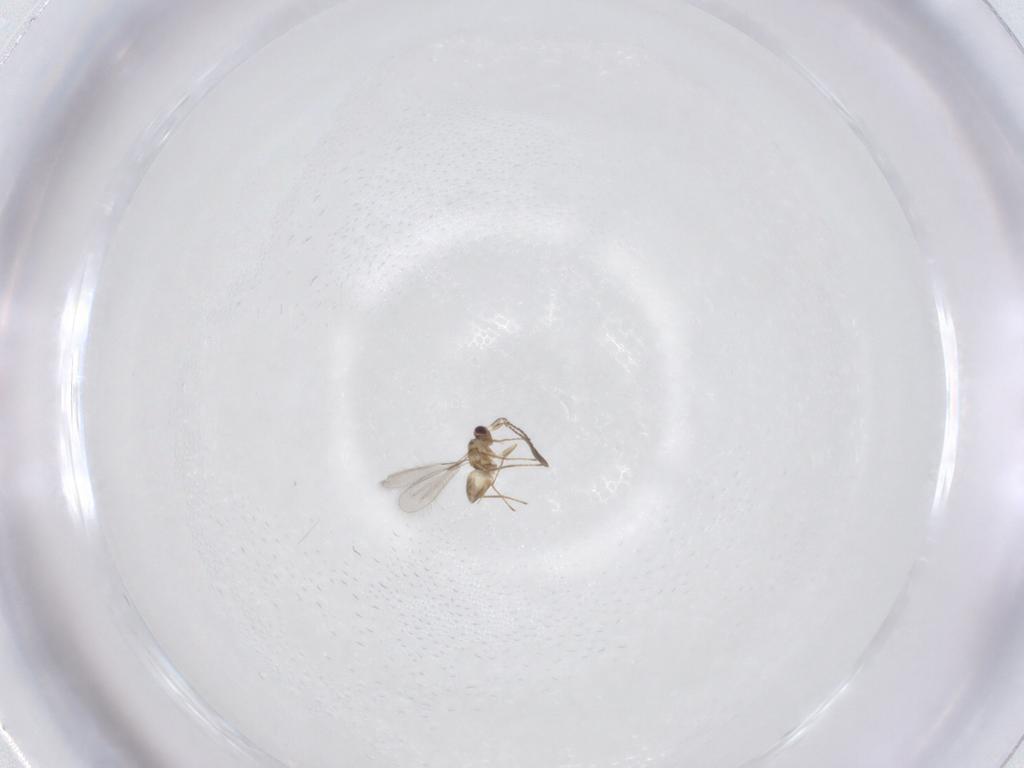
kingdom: Animalia
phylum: Arthropoda
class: Insecta
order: Hymenoptera
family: Mymaridae
